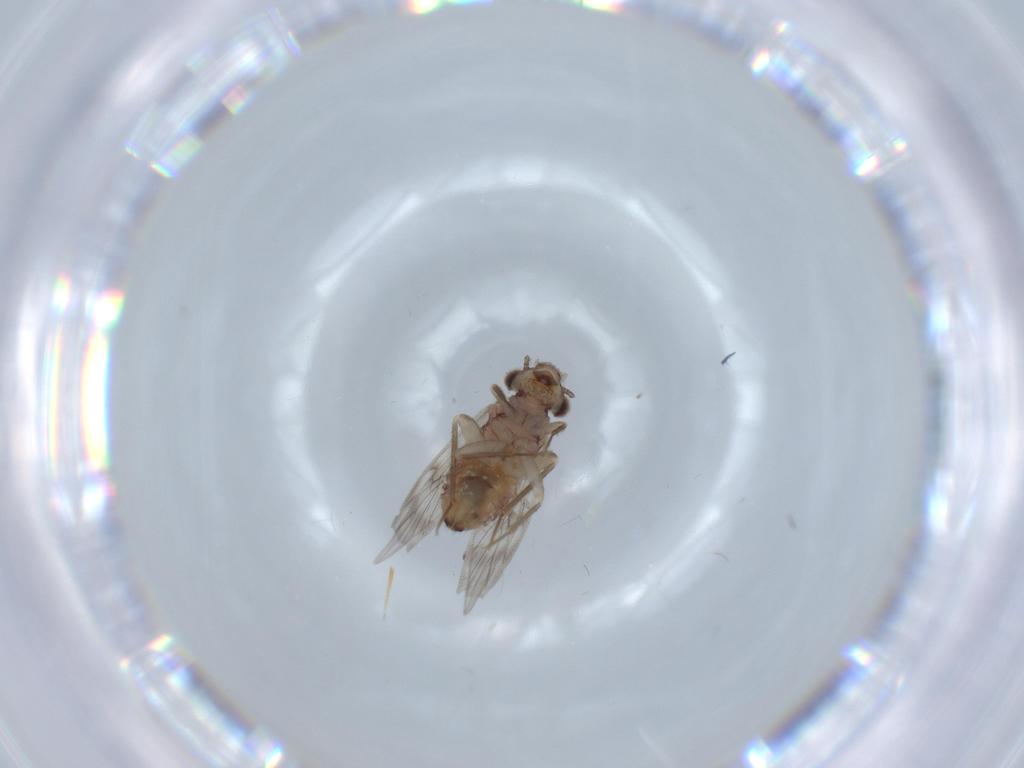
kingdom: Animalia
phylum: Arthropoda
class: Insecta
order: Psocodea
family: Lepidopsocidae
